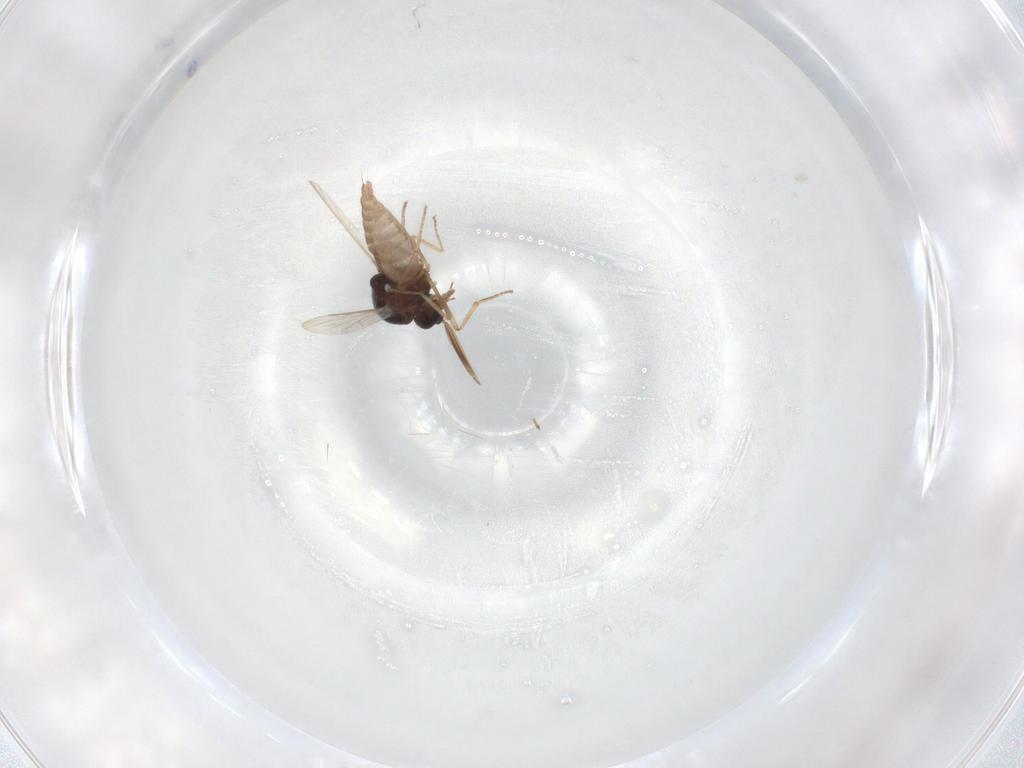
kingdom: Animalia
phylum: Arthropoda
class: Insecta
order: Diptera
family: Ceratopogonidae
